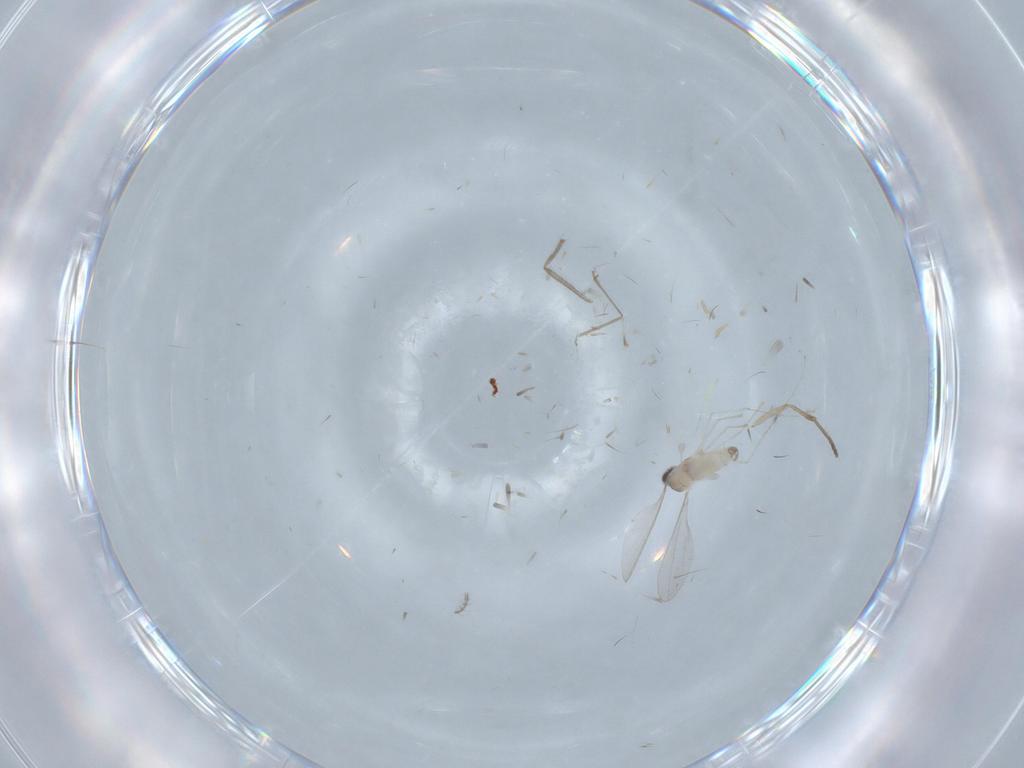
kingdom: Animalia
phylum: Arthropoda
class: Insecta
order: Diptera
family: Cecidomyiidae
